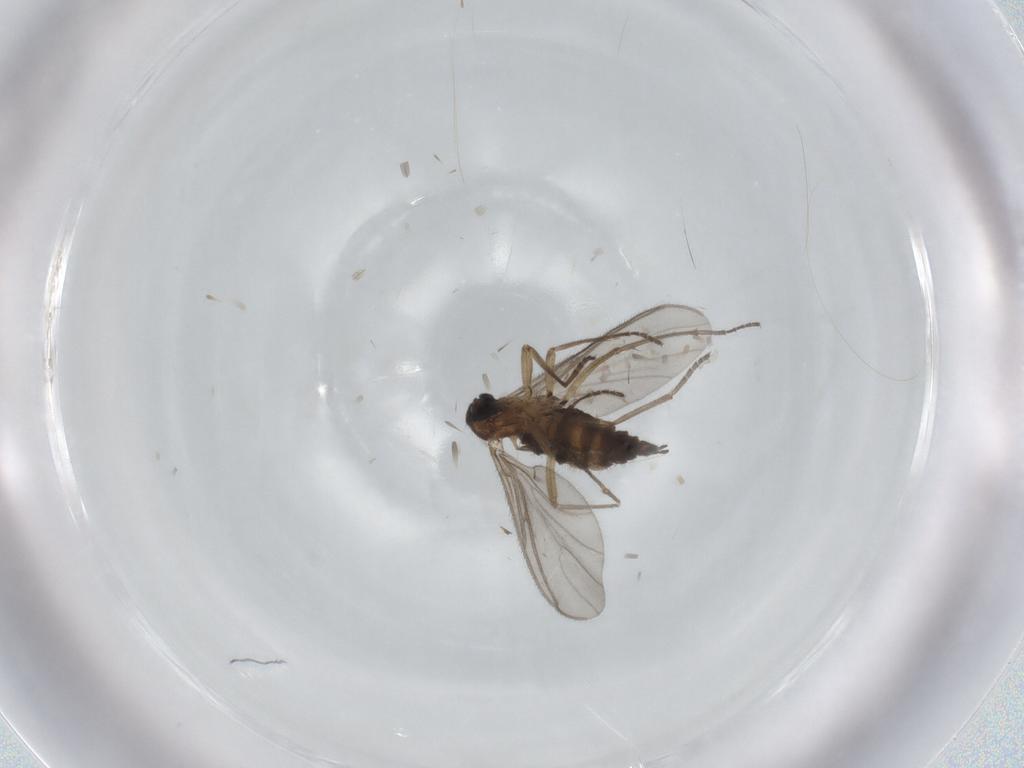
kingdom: Animalia
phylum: Arthropoda
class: Insecta
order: Diptera
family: Sciaridae
